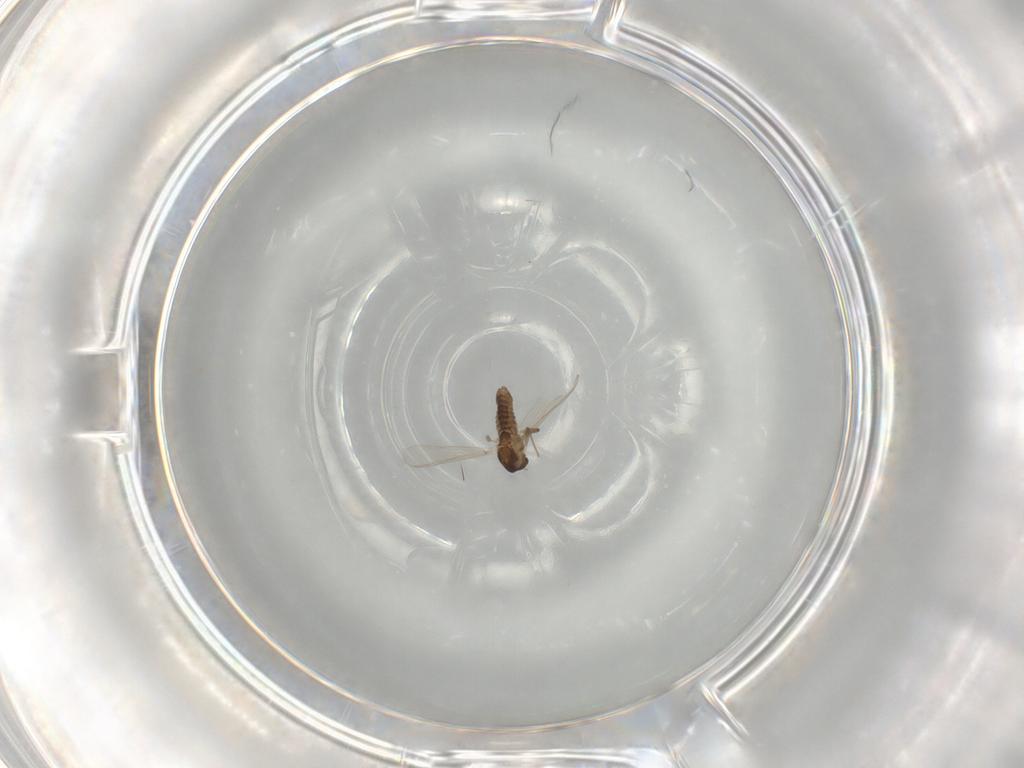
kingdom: Animalia
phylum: Arthropoda
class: Insecta
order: Diptera
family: Chironomidae
